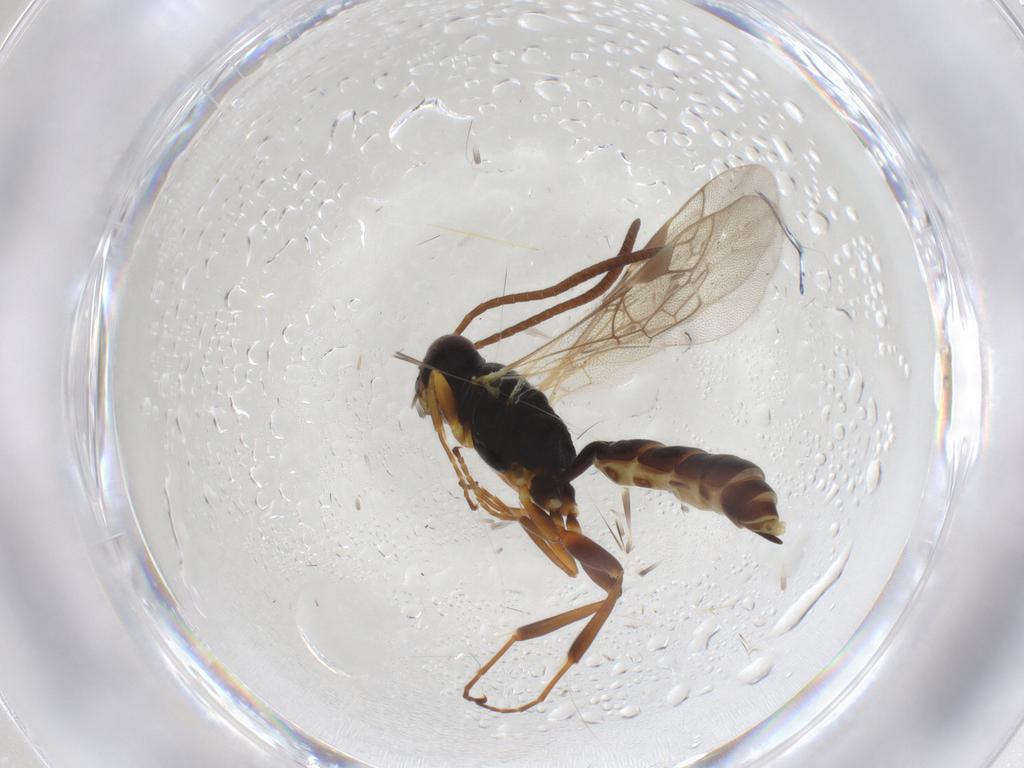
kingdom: Animalia
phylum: Arthropoda
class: Insecta
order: Hymenoptera
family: Ichneumonidae
